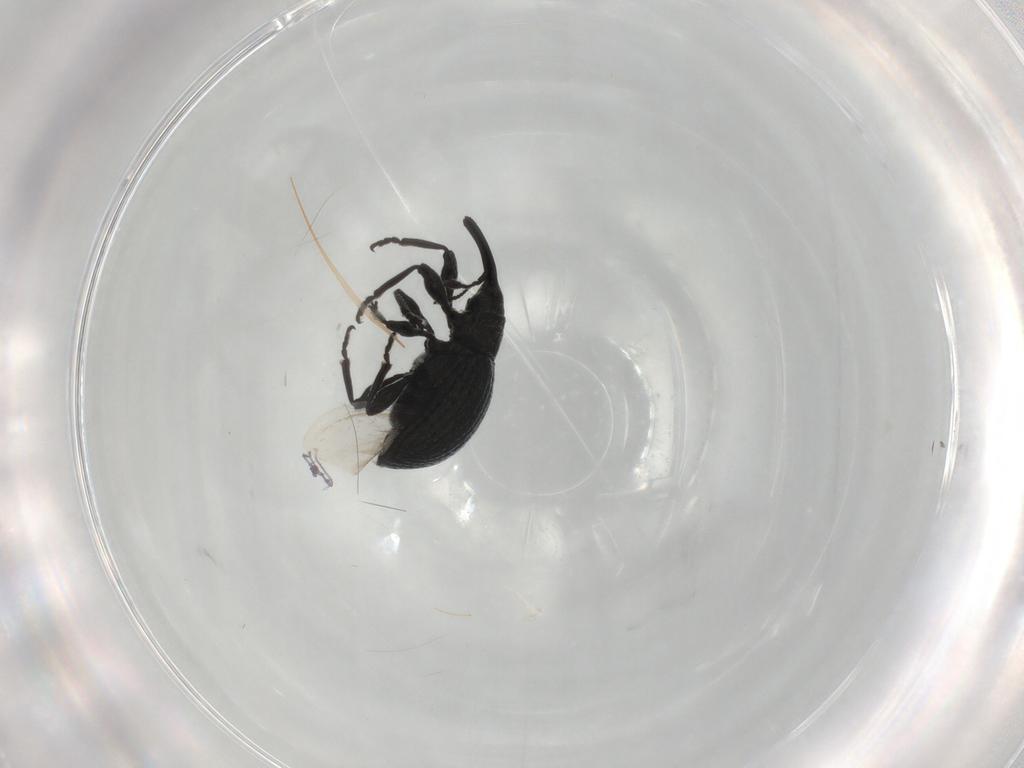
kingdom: Animalia
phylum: Arthropoda
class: Insecta
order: Coleoptera
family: Brentidae
